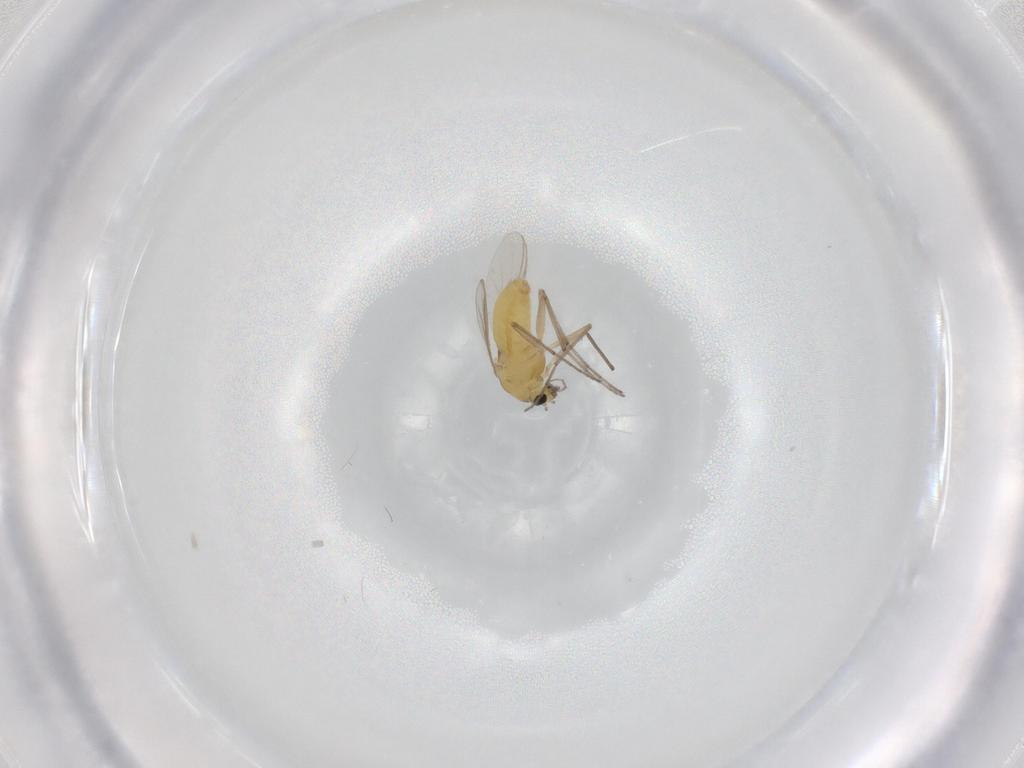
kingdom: Animalia
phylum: Arthropoda
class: Insecta
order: Diptera
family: Chironomidae
